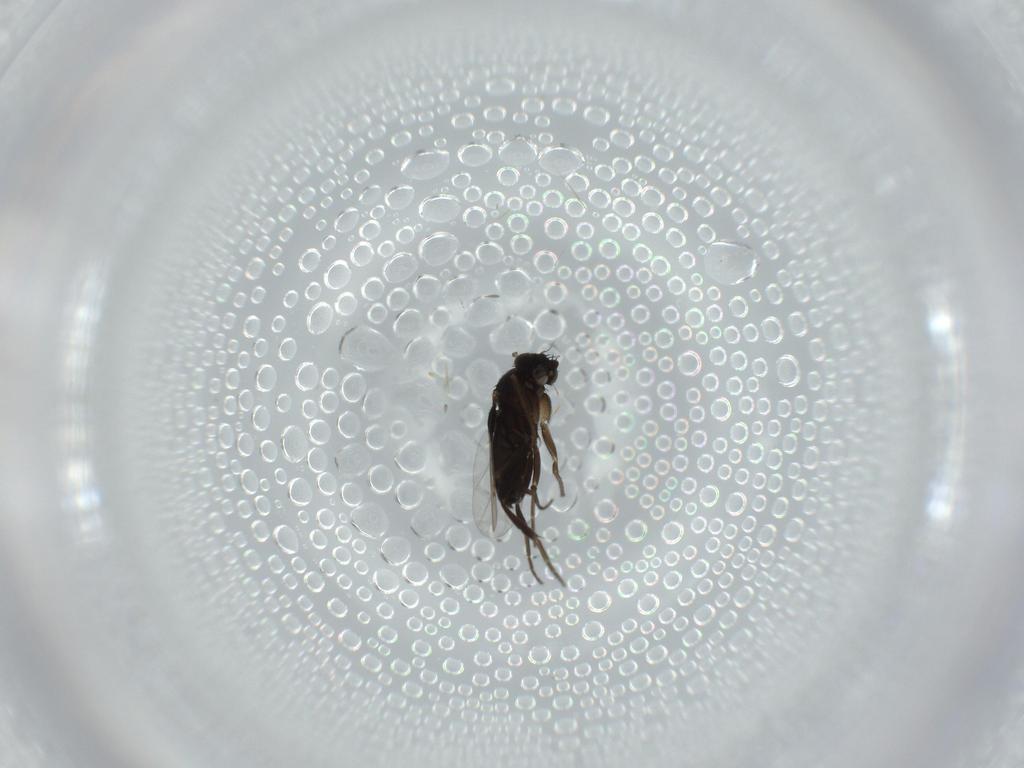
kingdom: Animalia
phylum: Arthropoda
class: Insecta
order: Diptera
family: Phoridae
